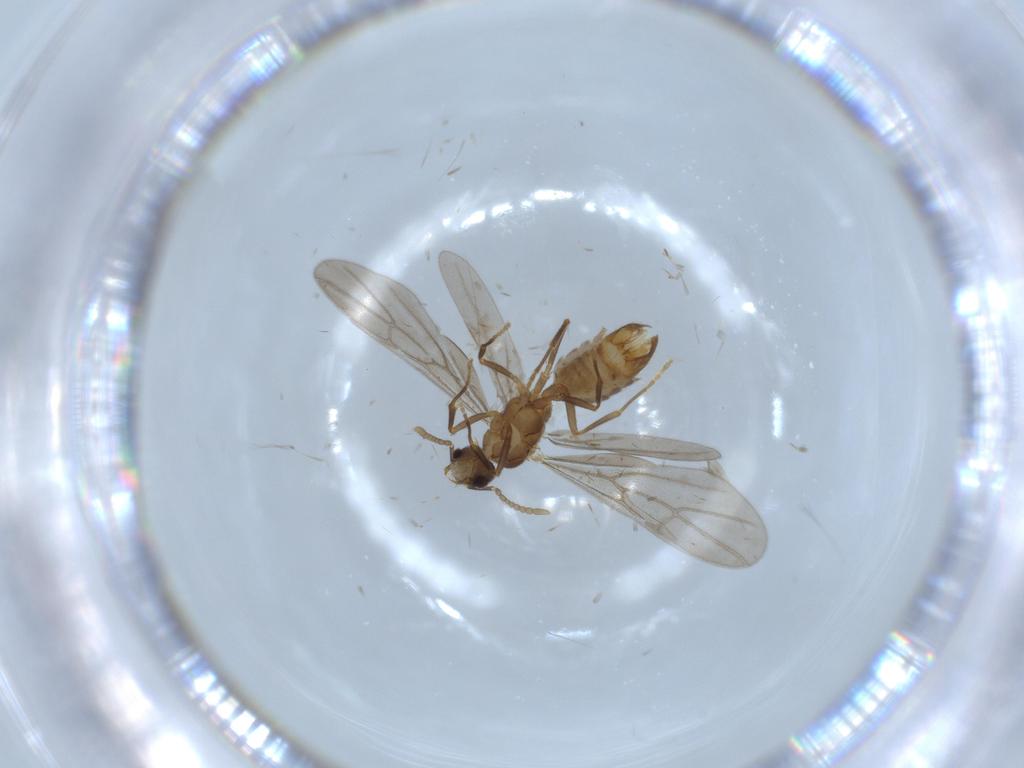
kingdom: Animalia
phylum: Arthropoda
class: Insecta
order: Hymenoptera
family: Formicidae
